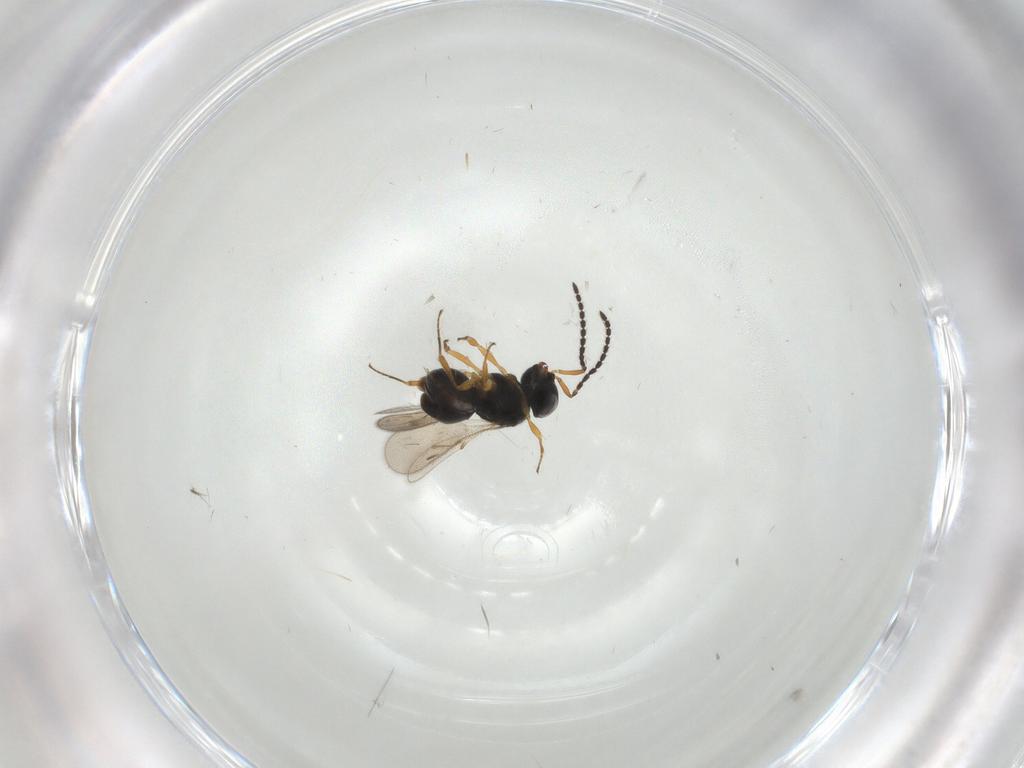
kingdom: Animalia
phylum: Arthropoda
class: Insecta
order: Hymenoptera
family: Scelionidae
